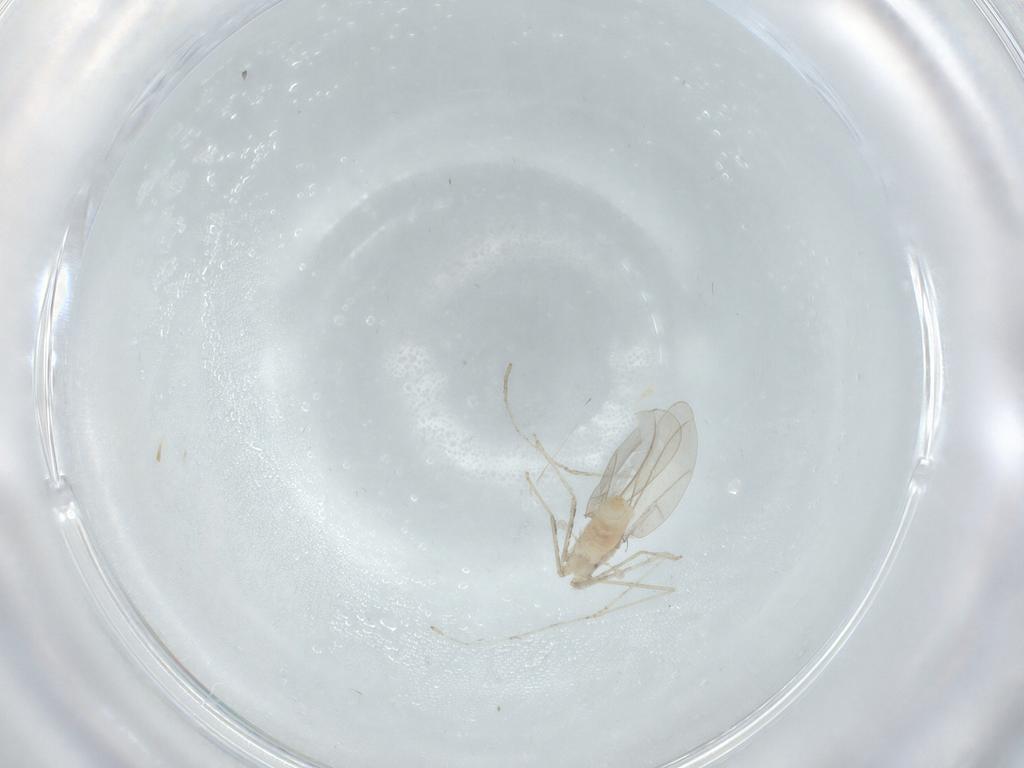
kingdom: Animalia
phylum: Arthropoda
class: Insecta
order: Diptera
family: Cecidomyiidae
